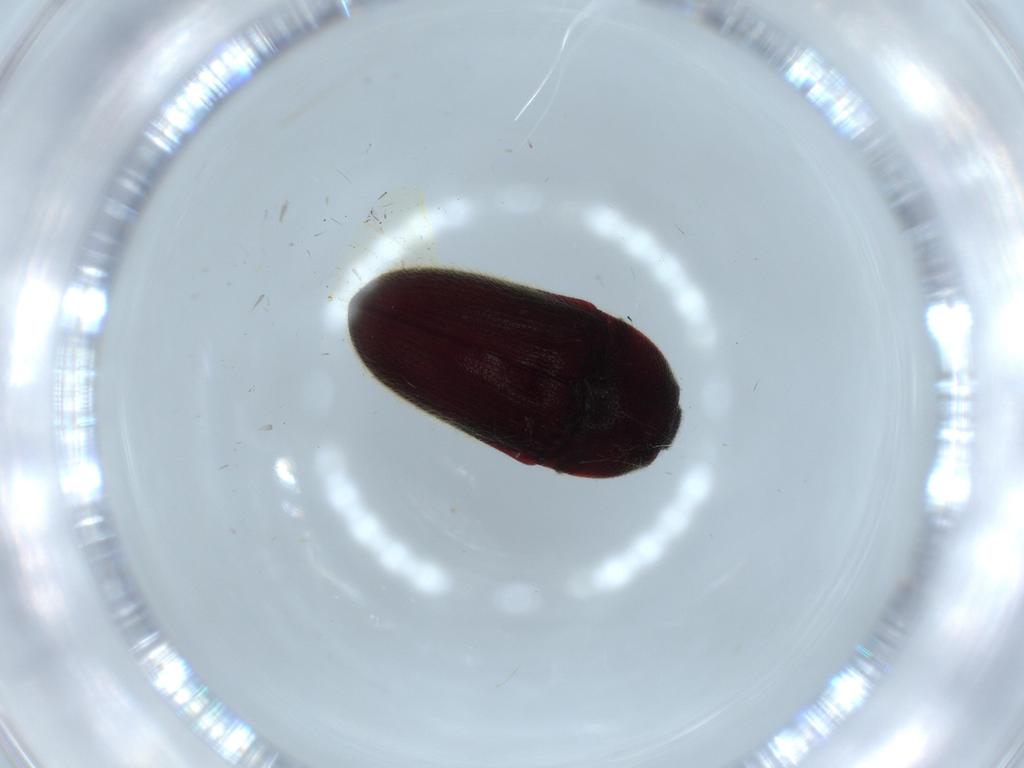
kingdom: Animalia
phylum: Arthropoda
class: Insecta
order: Coleoptera
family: Throscidae
